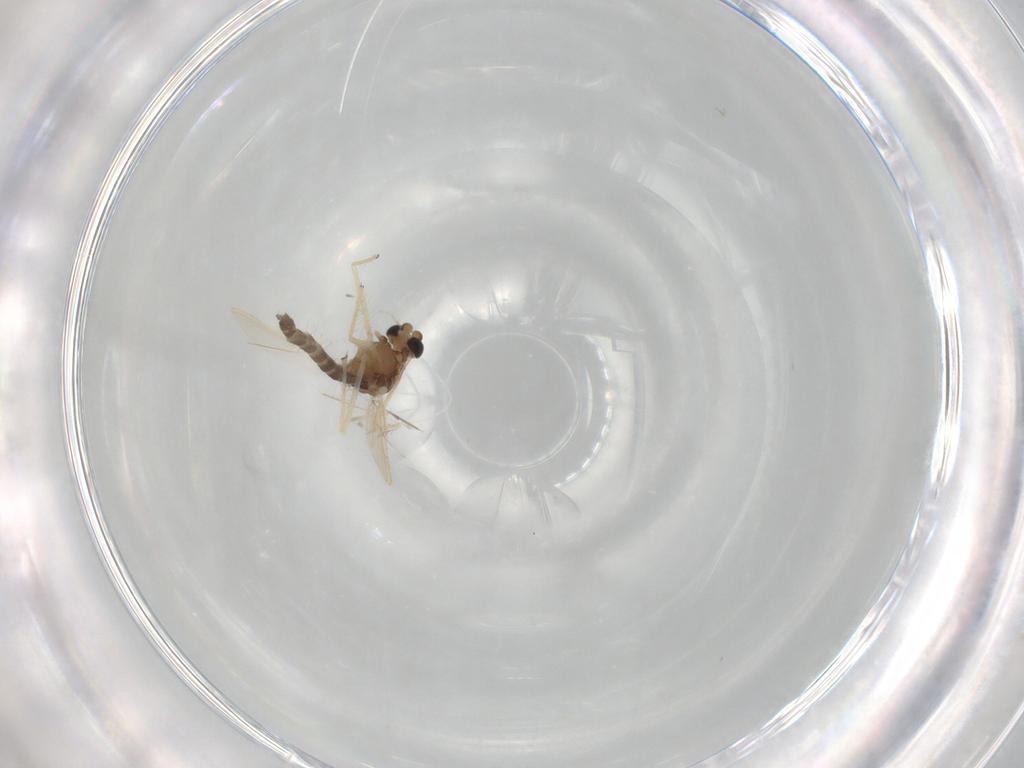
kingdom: Animalia
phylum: Arthropoda
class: Insecta
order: Diptera
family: Chironomidae
